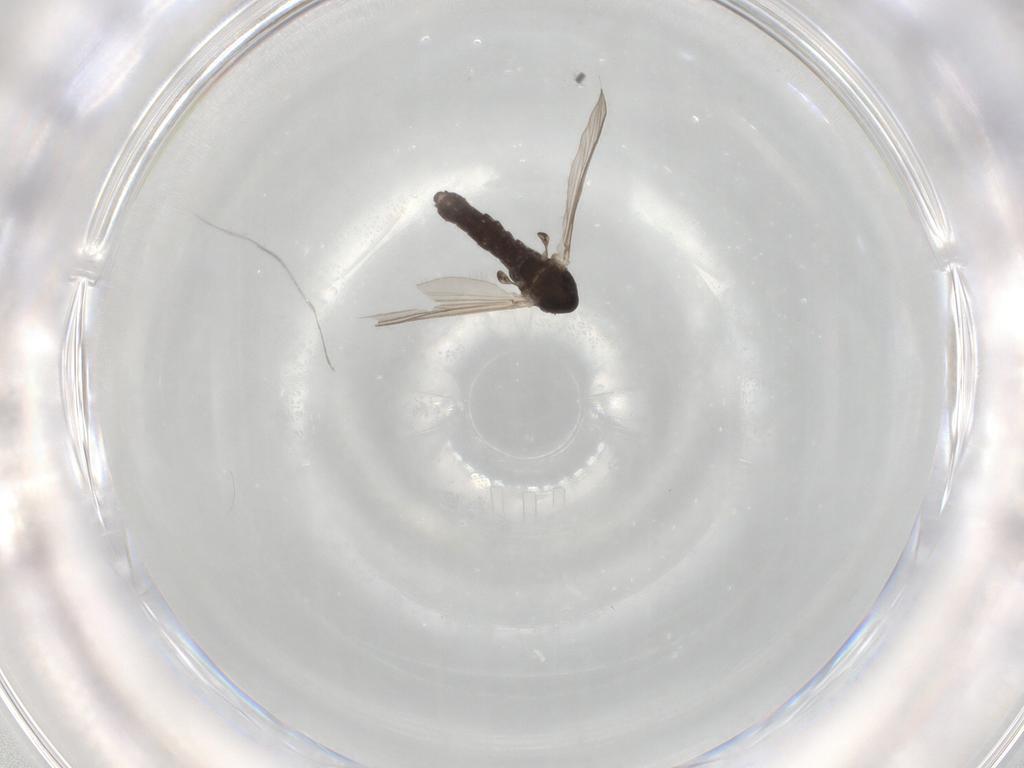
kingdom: Animalia
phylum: Arthropoda
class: Insecta
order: Diptera
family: Chironomidae
